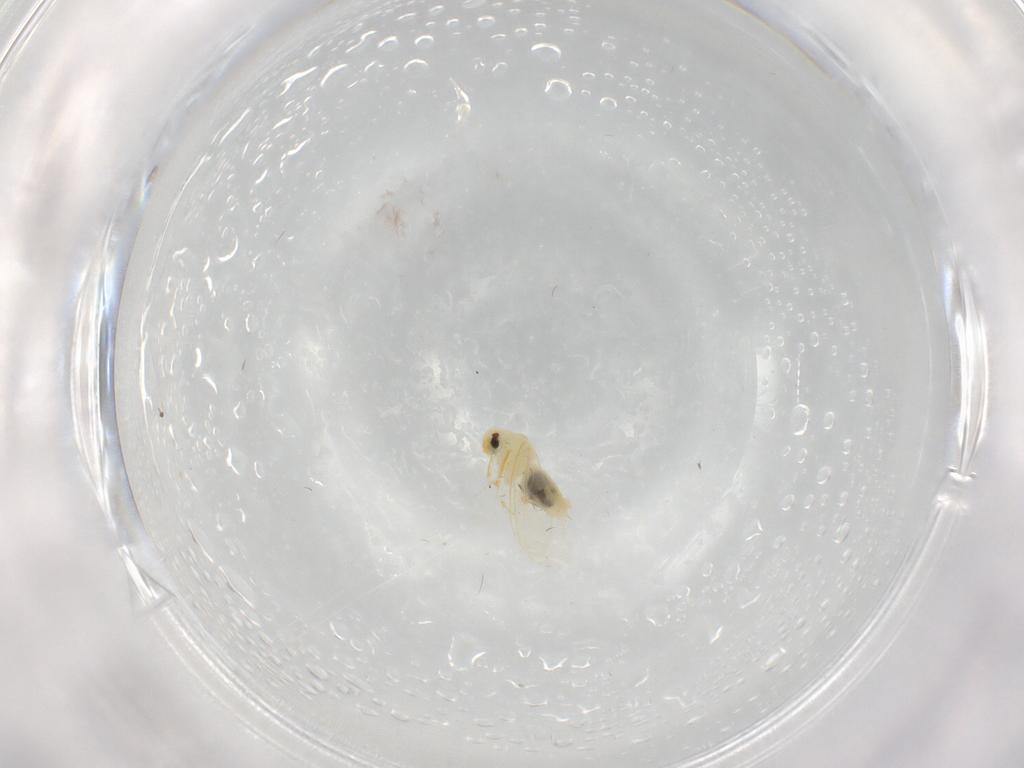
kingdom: Animalia
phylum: Arthropoda
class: Insecta
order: Hemiptera
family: Aleyrodidae
